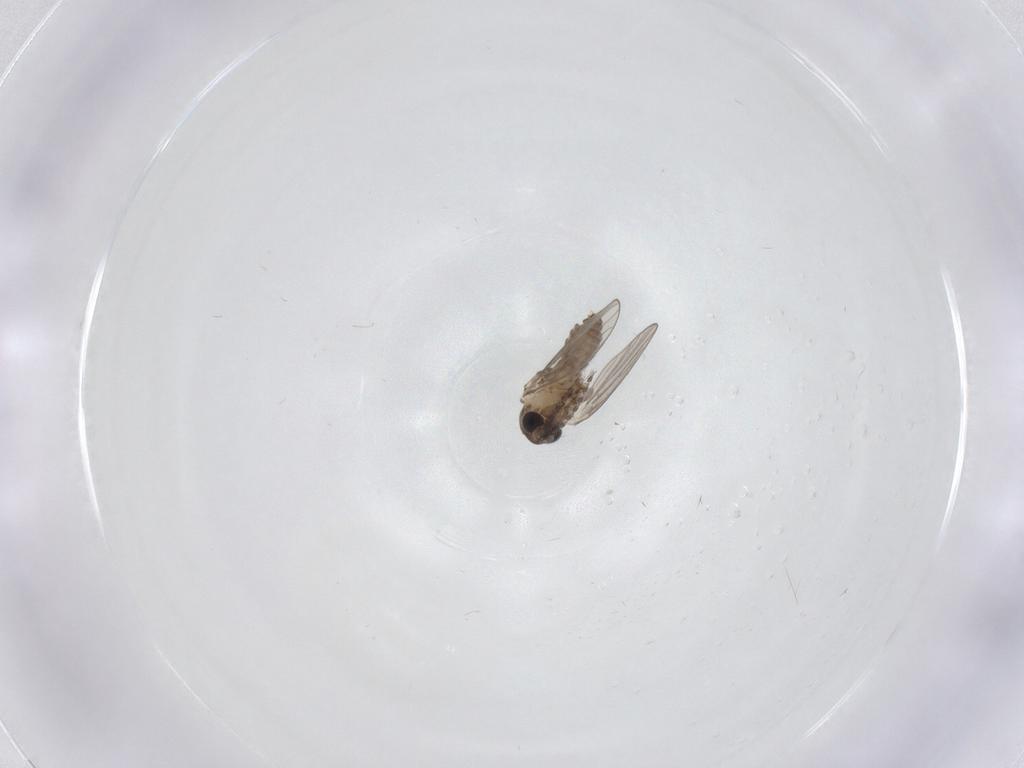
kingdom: Animalia
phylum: Arthropoda
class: Insecta
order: Diptera
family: Psychodidae
